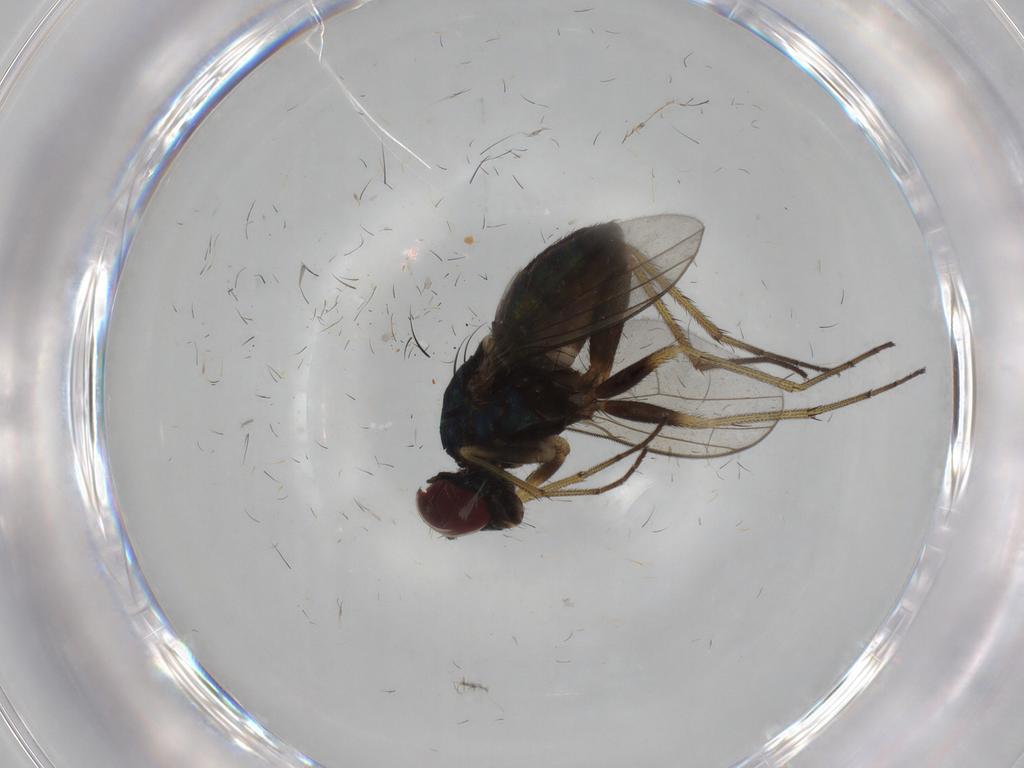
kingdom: Animalia
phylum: Arthropoda
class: Insecta
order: Diptera
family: Dolichopodidae
